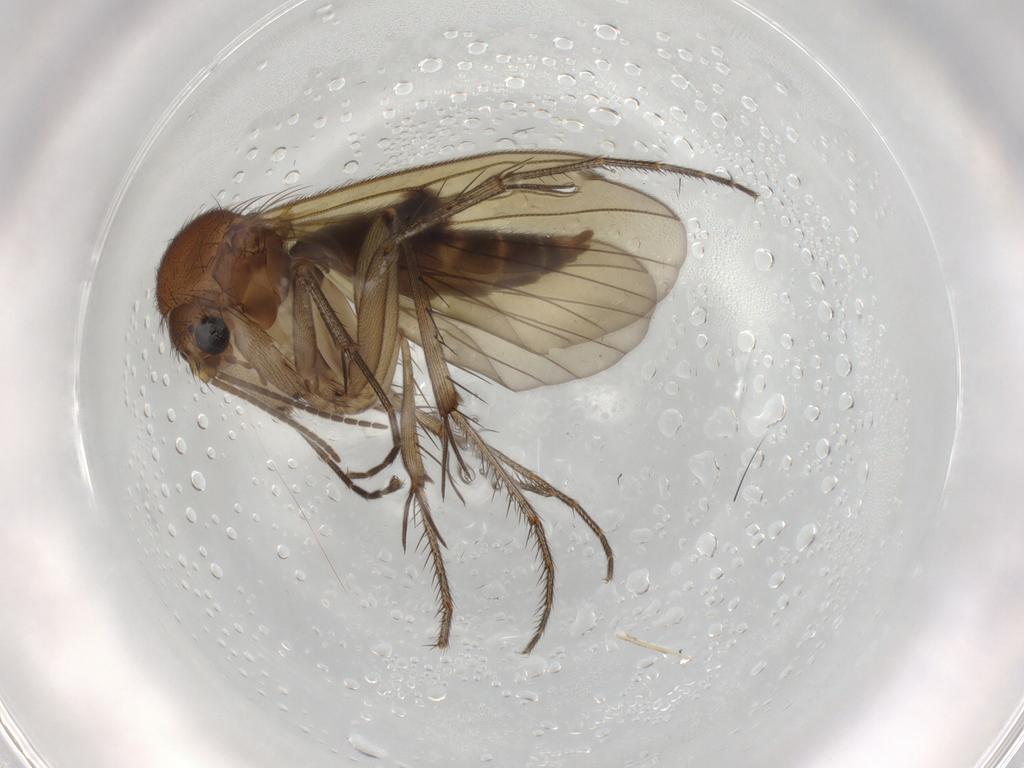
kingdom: Animalia
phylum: Arthropoda
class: Insecta
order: Diptera
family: Mycetophilidae
